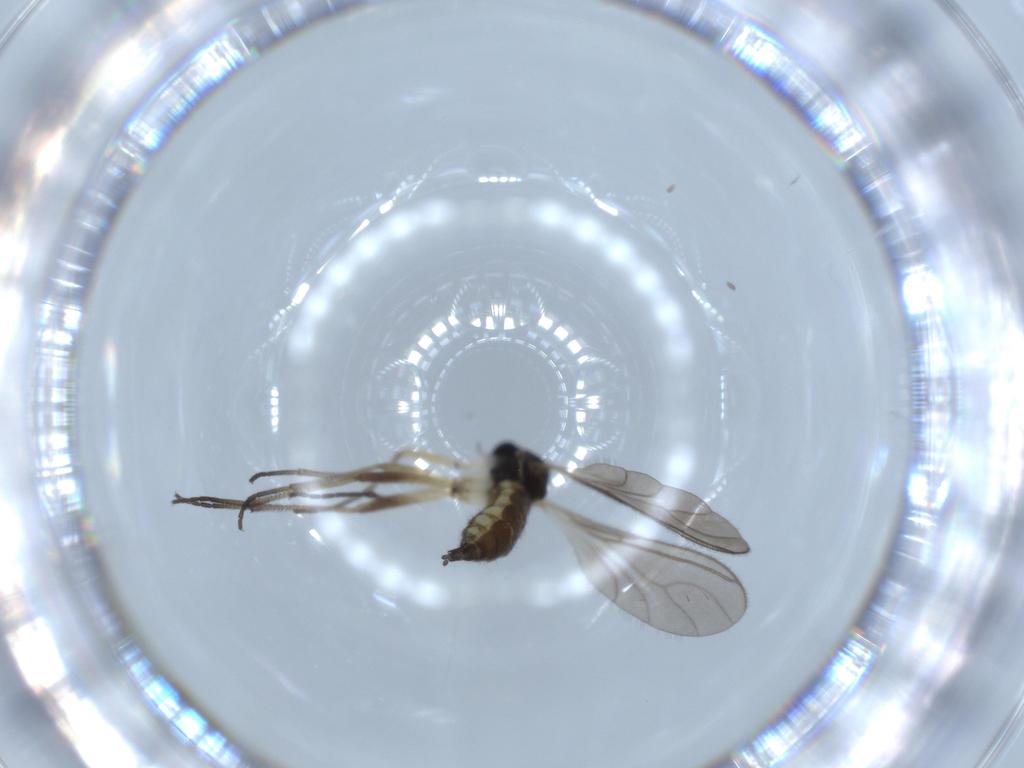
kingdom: Animalia
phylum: Arthropoda
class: Insecta
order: Diptera
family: Sciaridae
